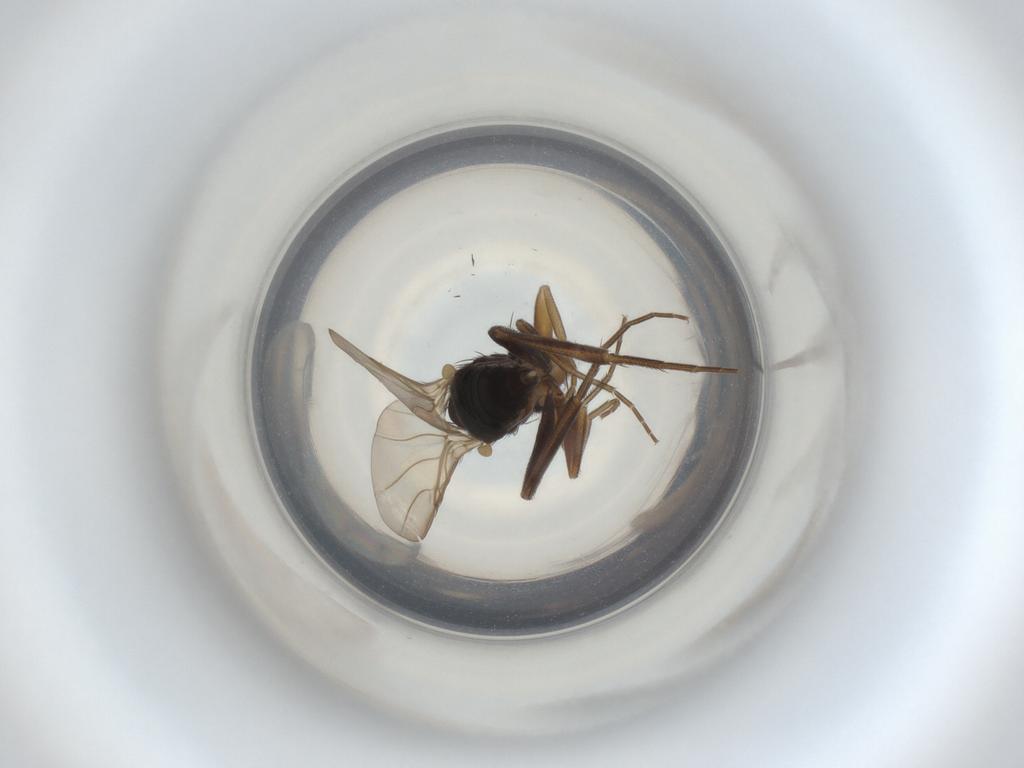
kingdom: Animalia
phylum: Arthropoda
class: Insecta
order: Diptera
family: Phoridae
